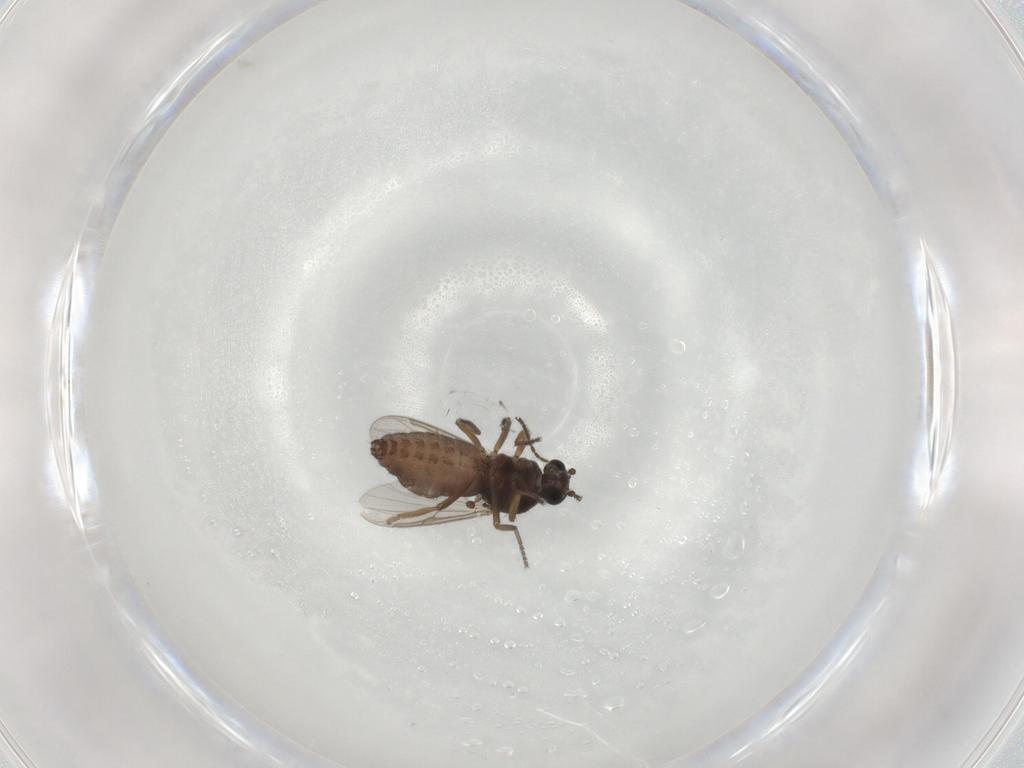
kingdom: Animalia
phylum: Arthropoda
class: Insecta
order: Diptera
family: Ceratopogonidae
